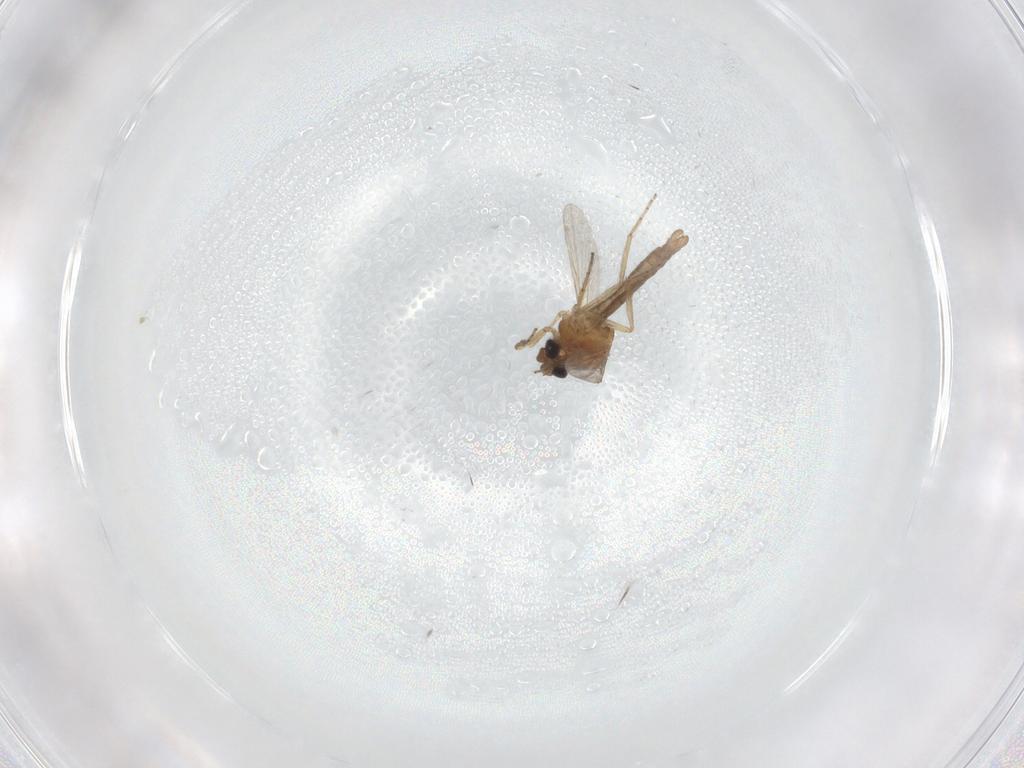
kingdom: Animalia
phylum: Arthropoda
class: Insecta
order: Diptera
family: Ceratopogonidae
